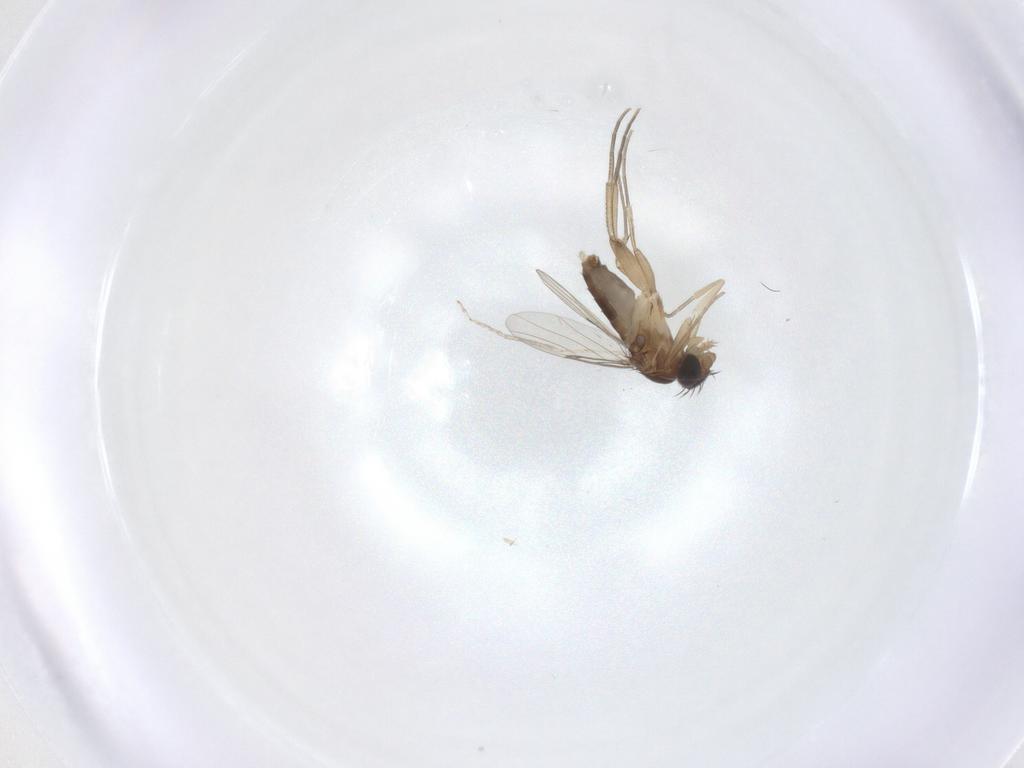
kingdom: Animalia
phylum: Arthropoda
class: Insecta
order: Diptera
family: Phoridae
